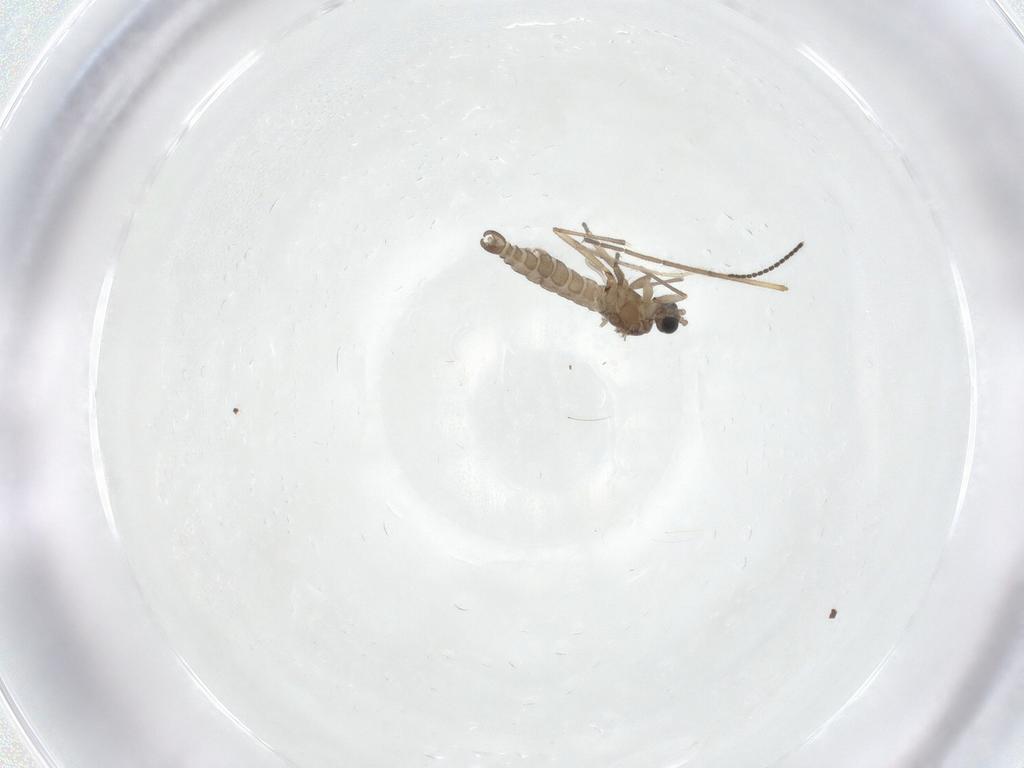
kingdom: Animalia
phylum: Arthropoda
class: Insecta
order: Diptera
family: Sciaridae
